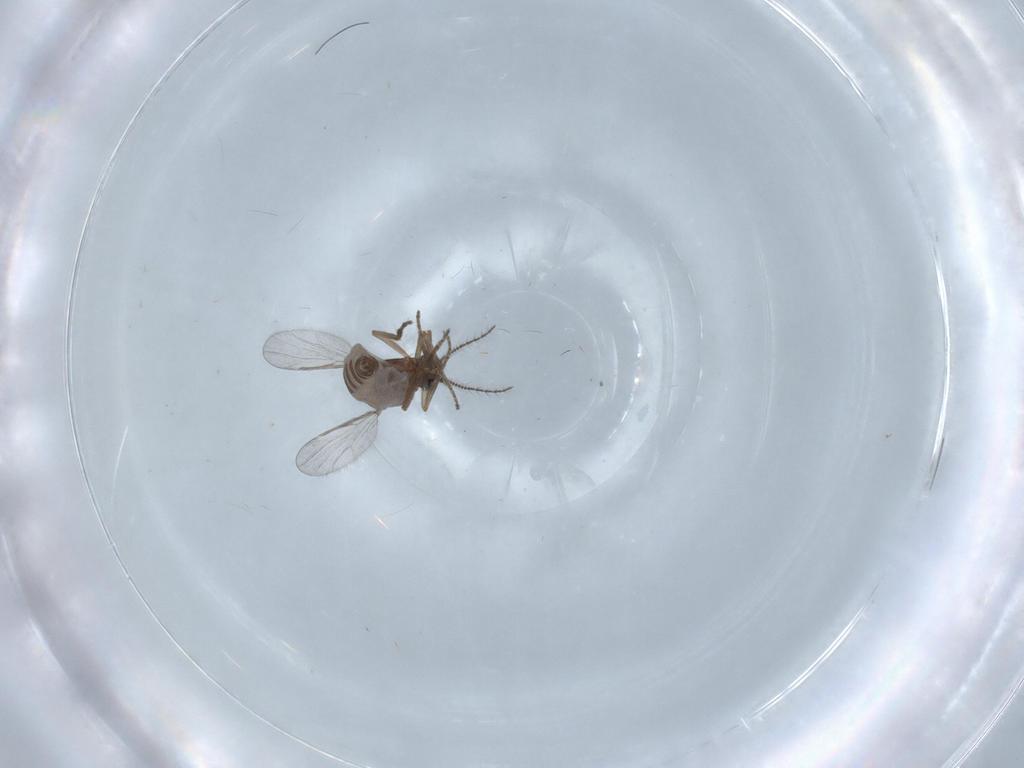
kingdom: Animalia
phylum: Arthropoda
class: Insecta
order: Diptera
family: Chironomidae
